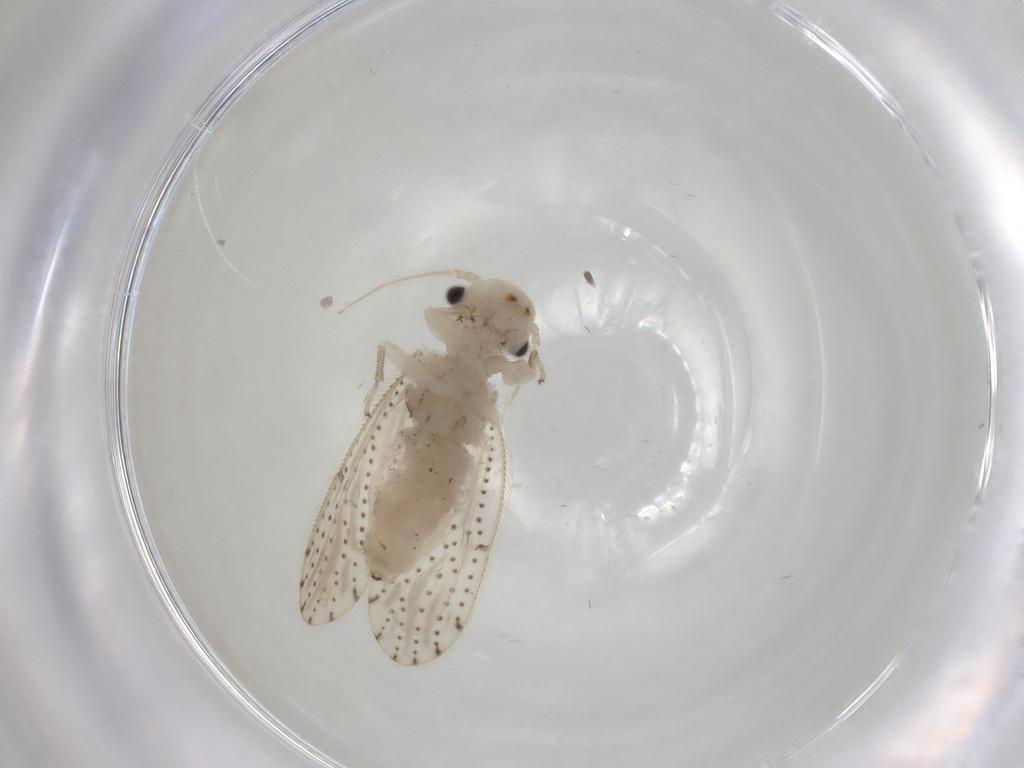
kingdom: Animalia
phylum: Arthropoda
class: Insecta
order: Psocodea
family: Myopsocidae
